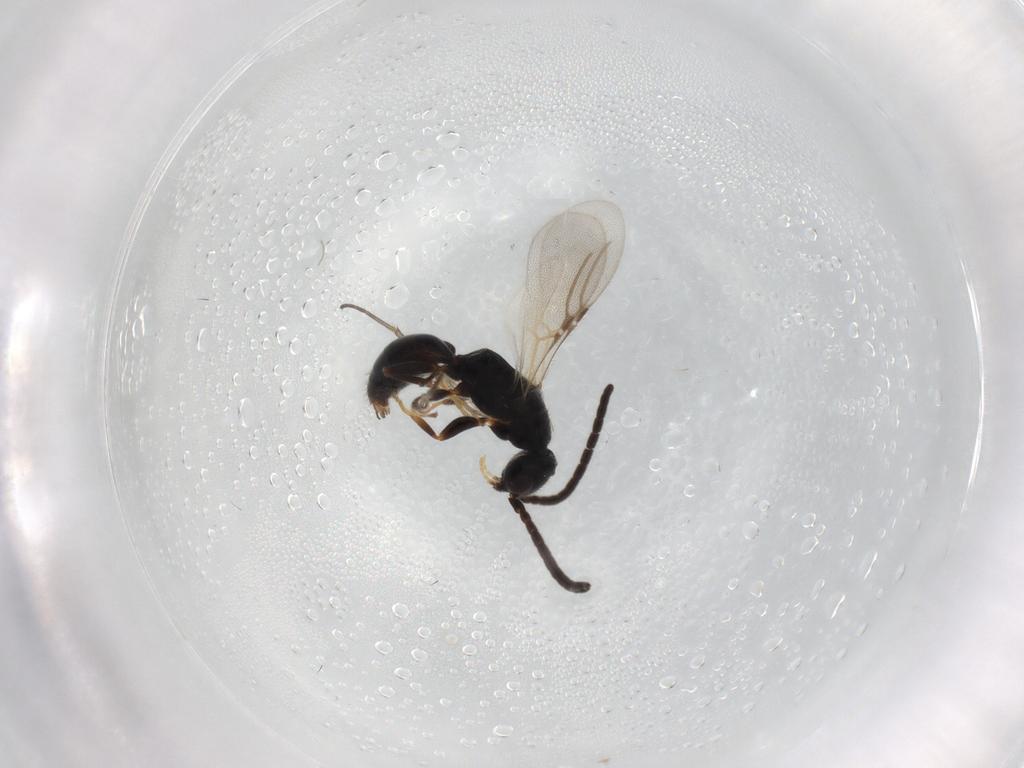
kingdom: Animalia
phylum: Arthropoda
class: Insecta
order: Hymenoptera
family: Bethylidae
